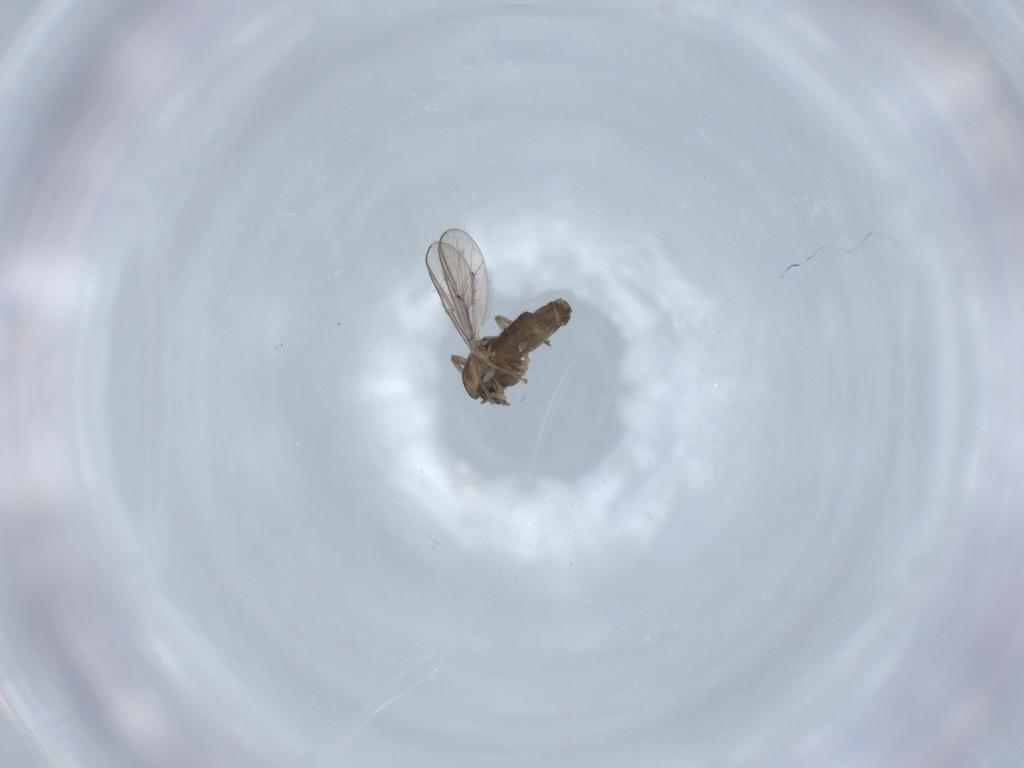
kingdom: Animalia
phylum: Arthropoda
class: Insecta
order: Diptera
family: Chironomidae
